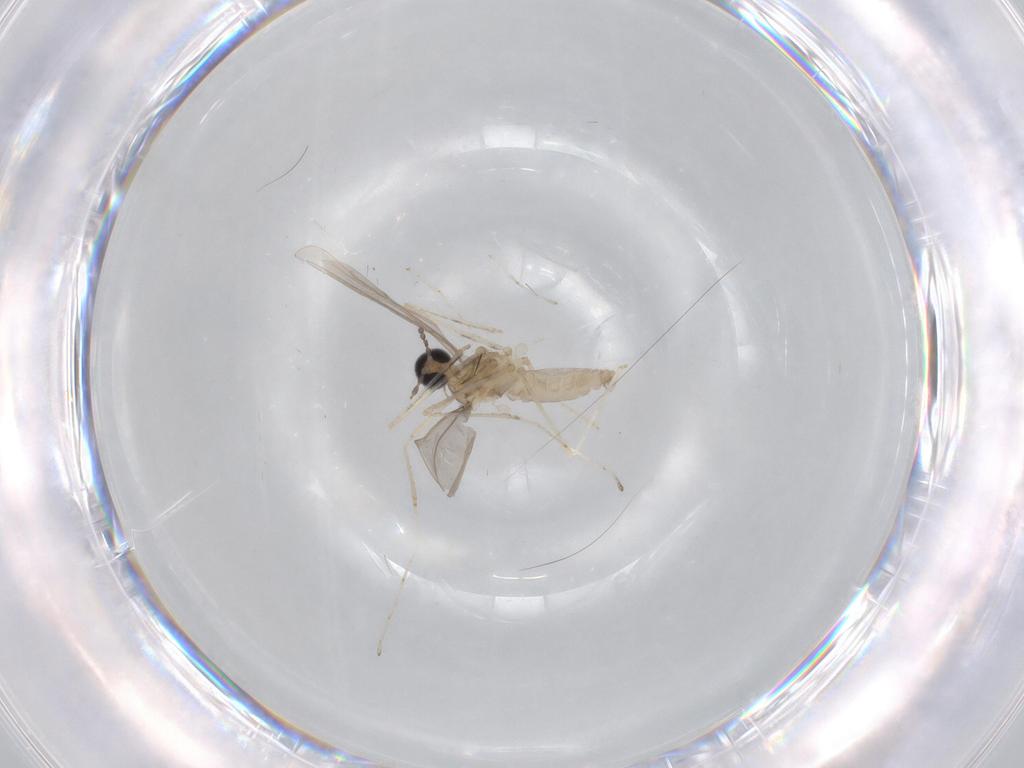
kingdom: Animalia
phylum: Arthropoda
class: Insecta
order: Diptera
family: Cecidomyiidae
